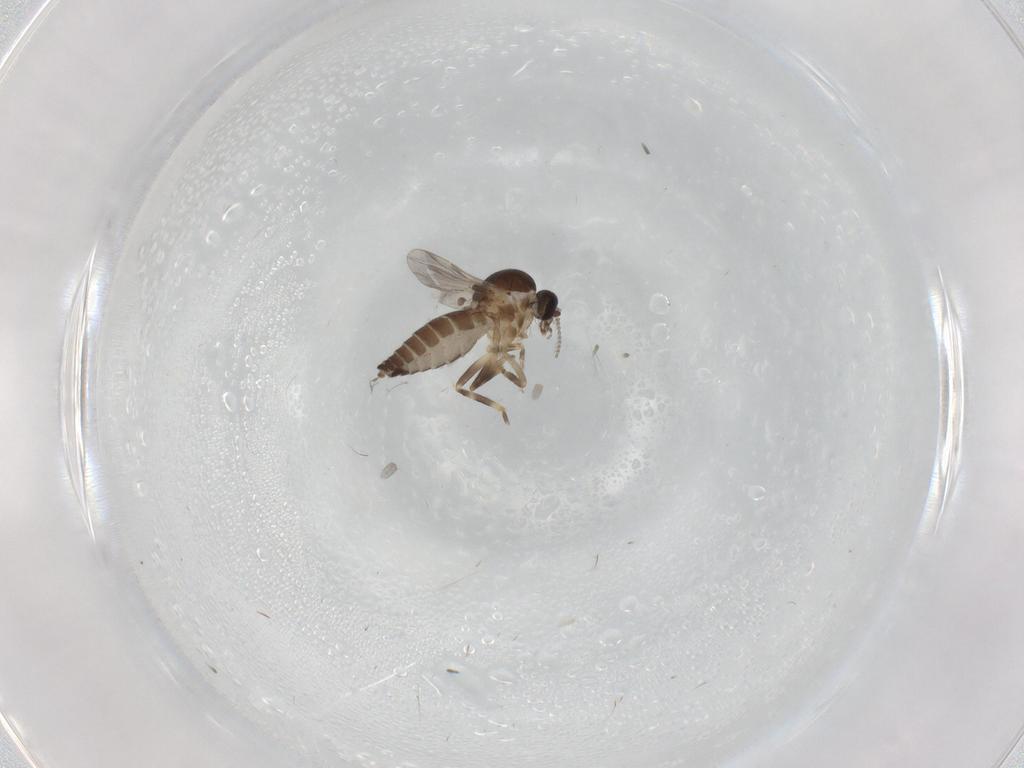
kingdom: Animalia
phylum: Arthropoda
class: Insecta
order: Diptera
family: Ceratopogonidae
